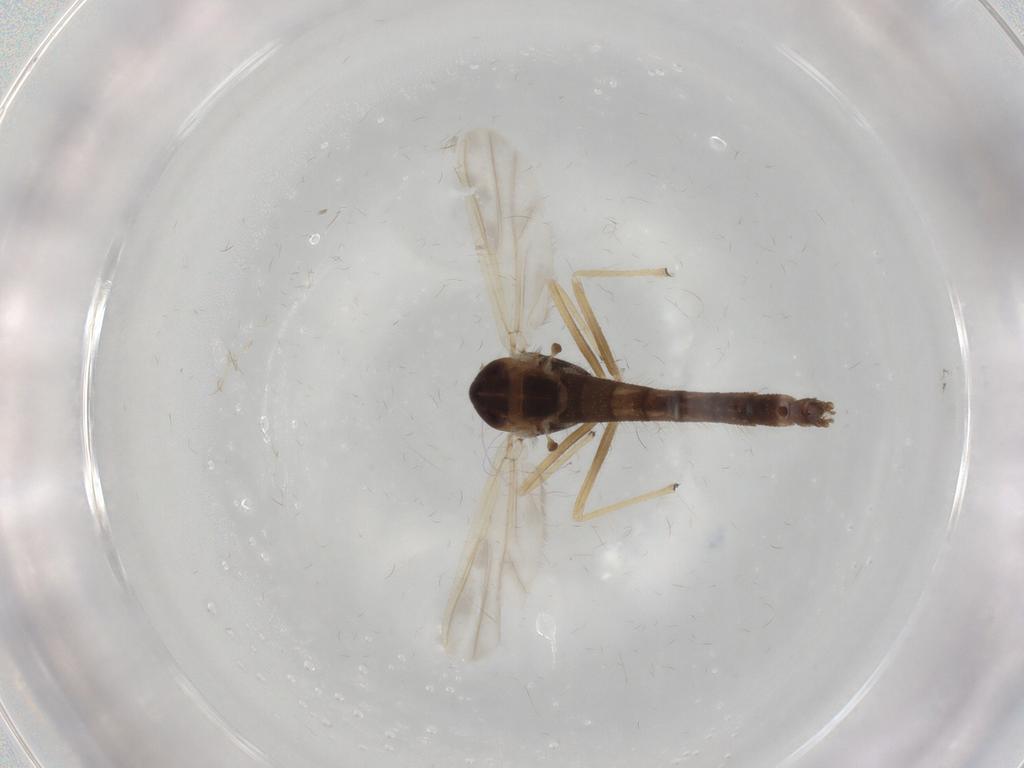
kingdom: Animalia
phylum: Arthropoda
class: Insecta
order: Diptera
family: Chironomidae
